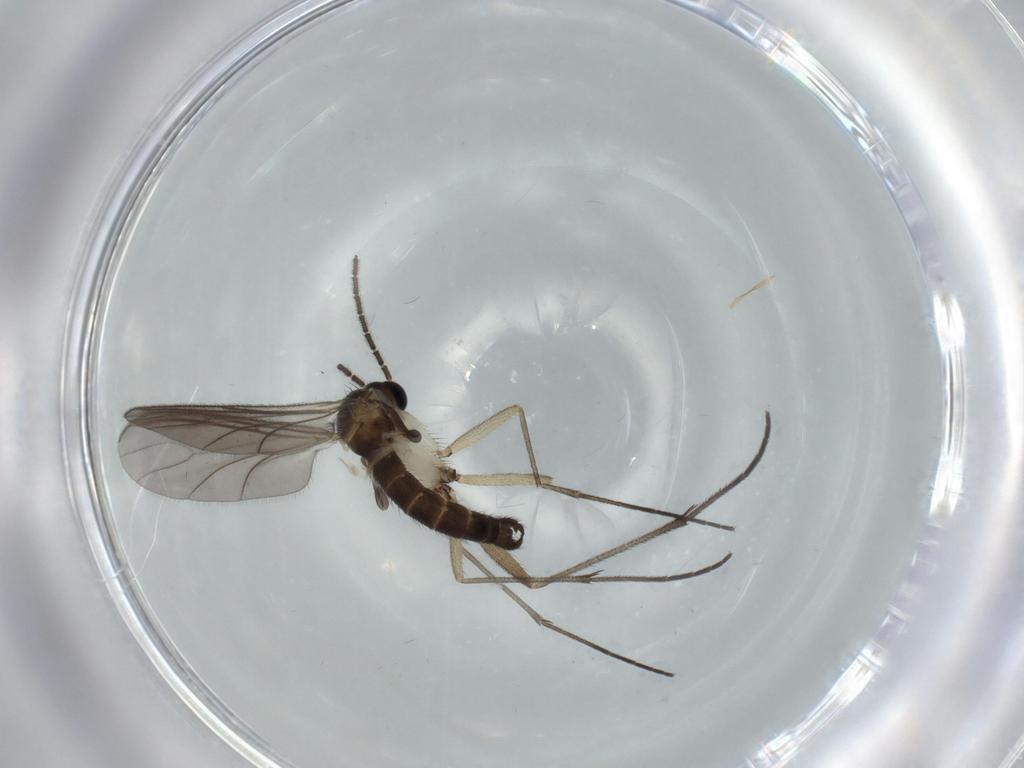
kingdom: Animalia
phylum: Arthropoda
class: Insecta
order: Diptera
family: Sciaridae
